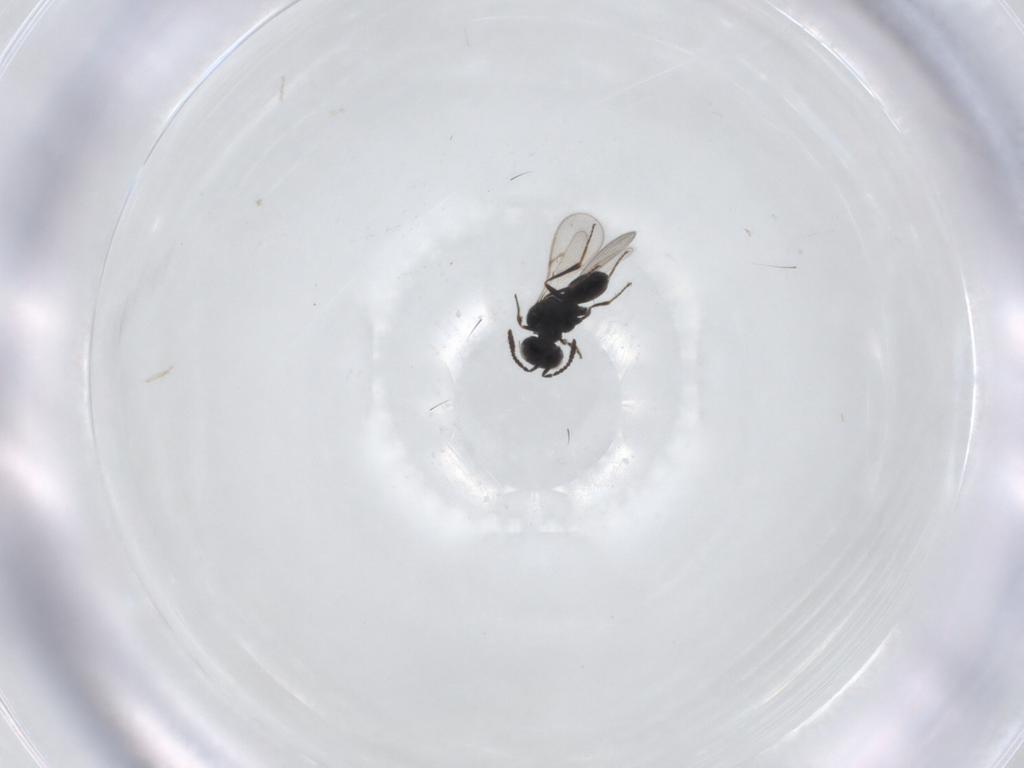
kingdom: Animalia
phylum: Arthropoda
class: Insecta
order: Hymenoptera
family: Scelionidae
